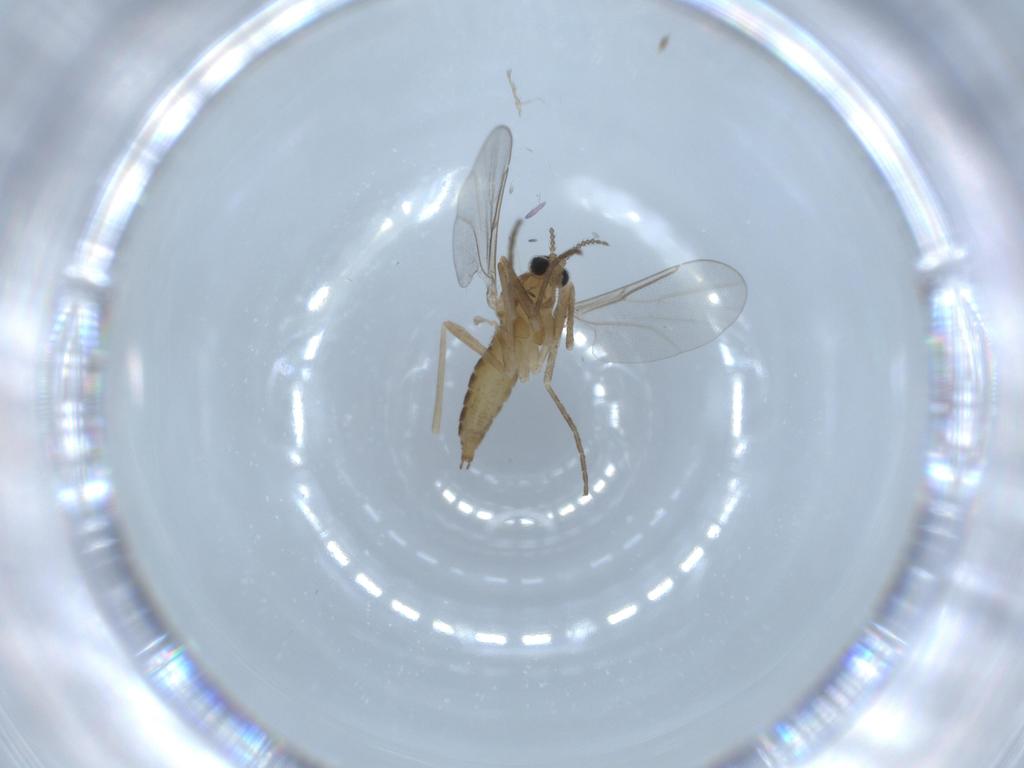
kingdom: Animalia
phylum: Arthropoda
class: Insecta
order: Diptera
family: Cecidomyiidae
